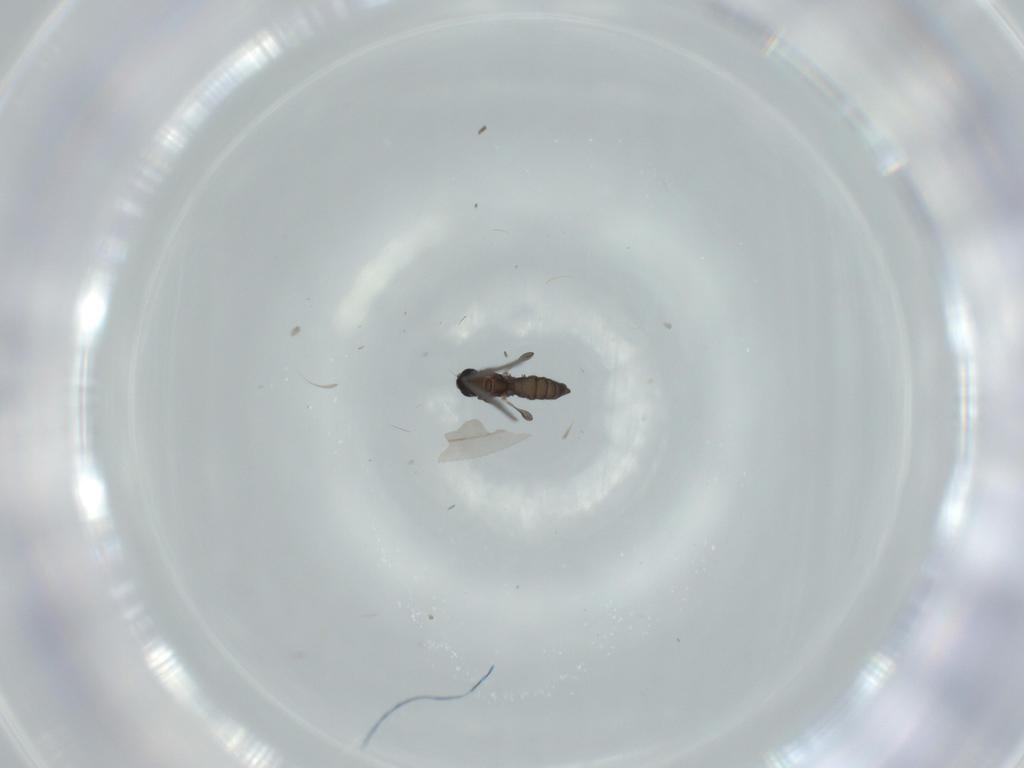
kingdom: Animalia
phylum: Arthropoda
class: Insecta
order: Diptera
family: Sciaridae
